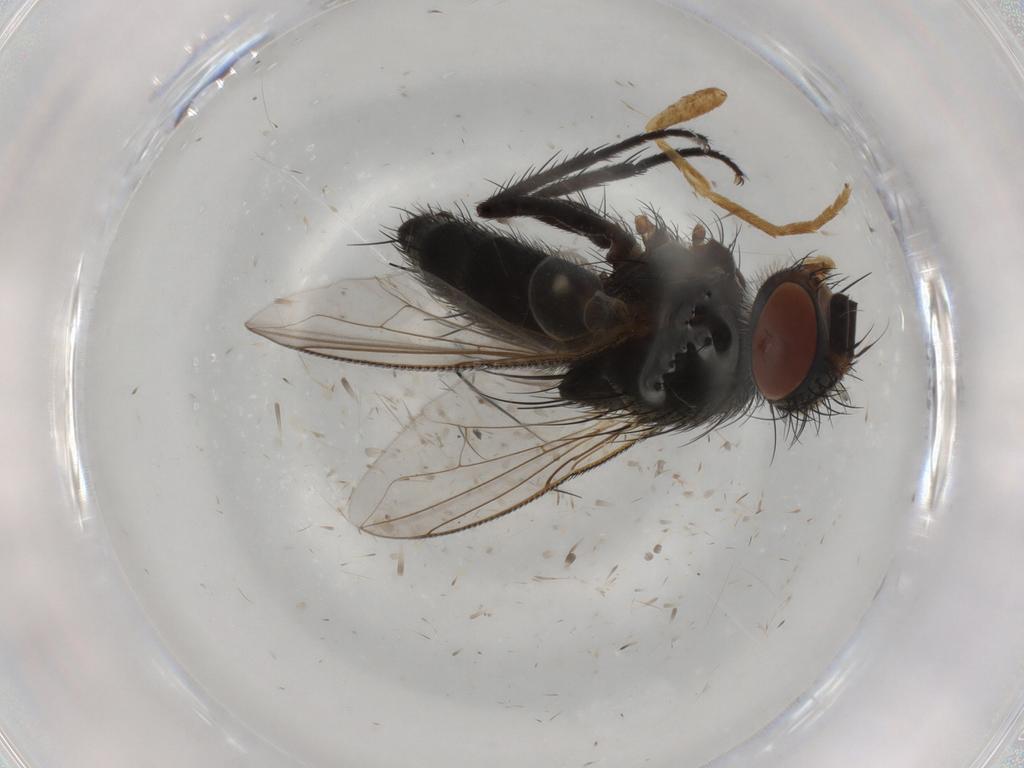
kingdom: Animalia
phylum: Arthropoda
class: Insecta
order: Diptera
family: Tachinidae
